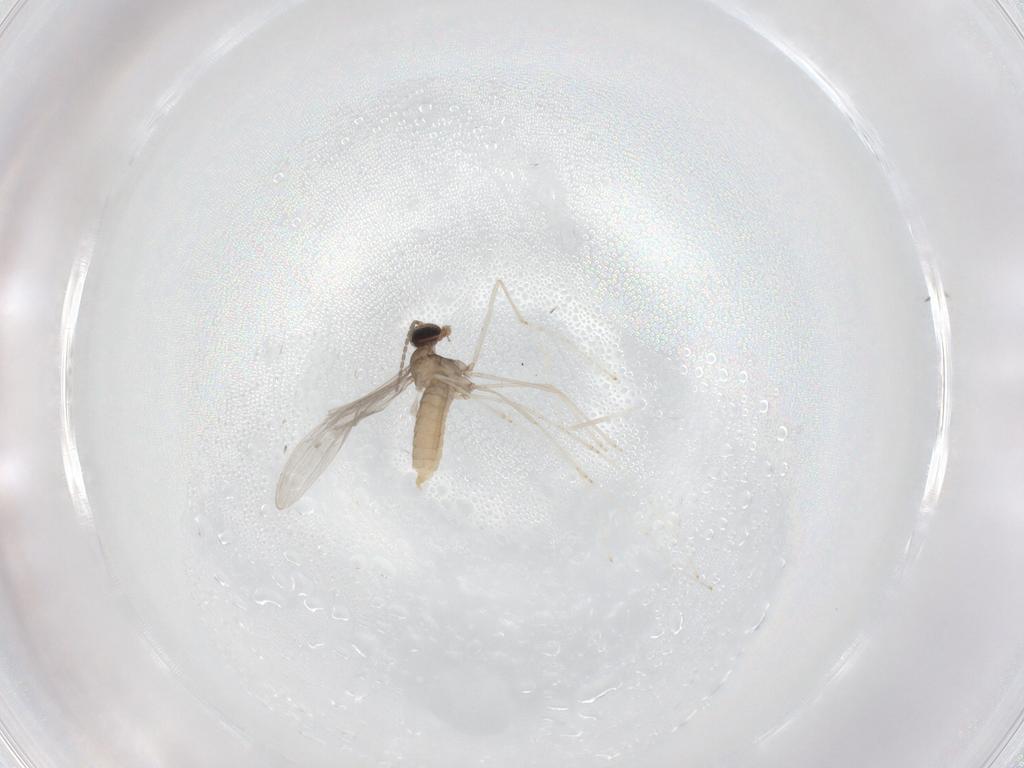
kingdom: Animalia
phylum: Arthropoda
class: Insecta
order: Diptera
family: Cecidomyiidae
